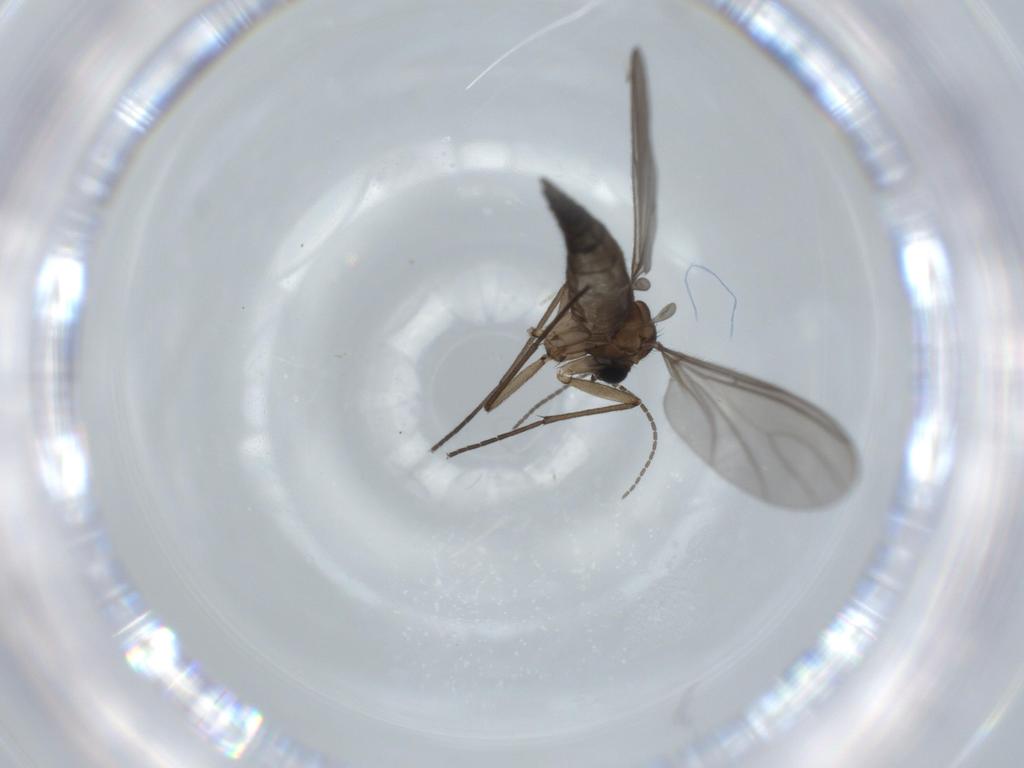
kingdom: Animalia
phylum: Arthropoda
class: Insecta
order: Diptera
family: Sciaridae
